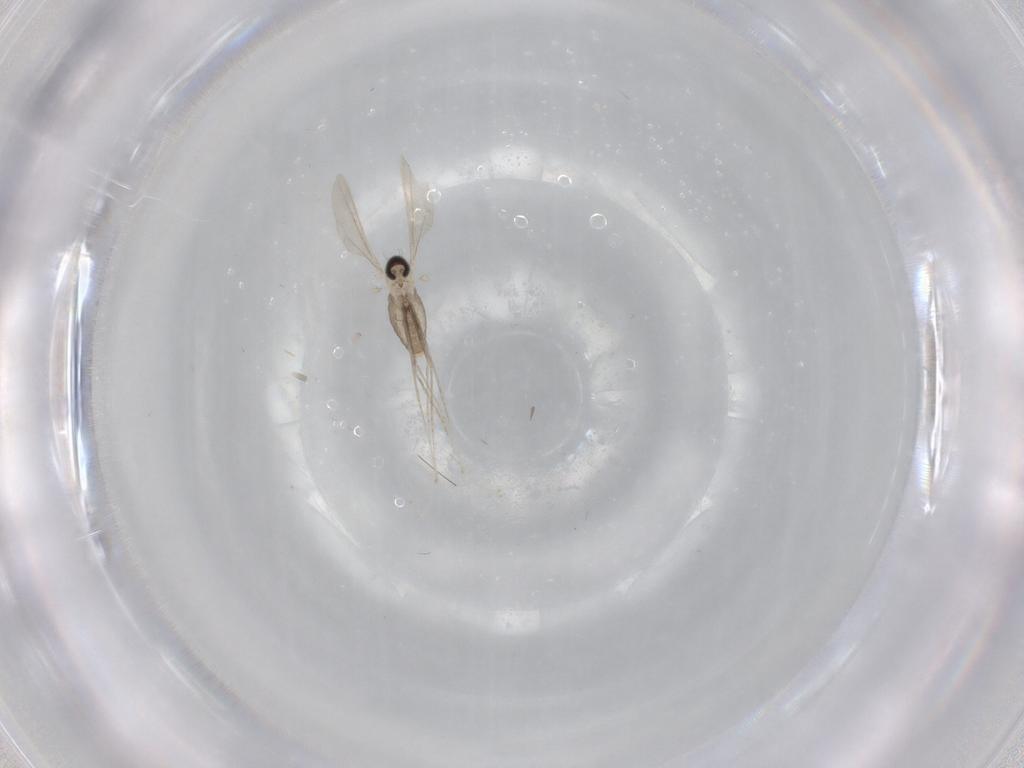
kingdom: Animalia
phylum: Arthropoda
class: Insecta
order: Diptera
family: Cecidomyiidae
